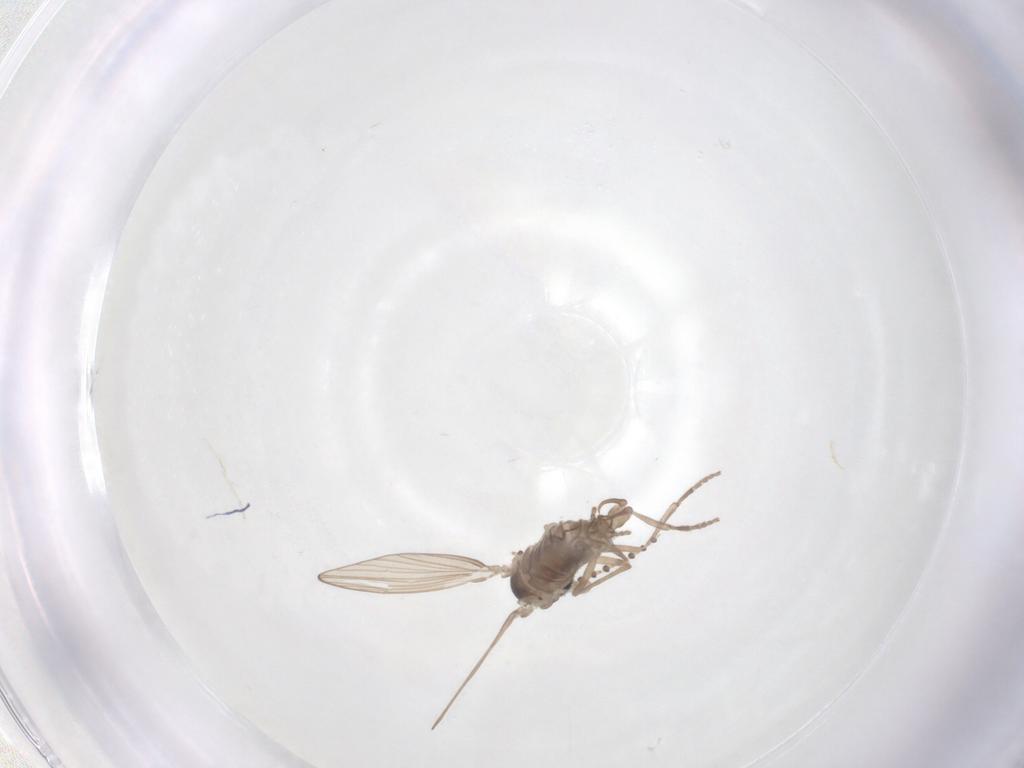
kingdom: Animalia
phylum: Arthropoda
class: Insecta
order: Diptera
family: Psychodidae
